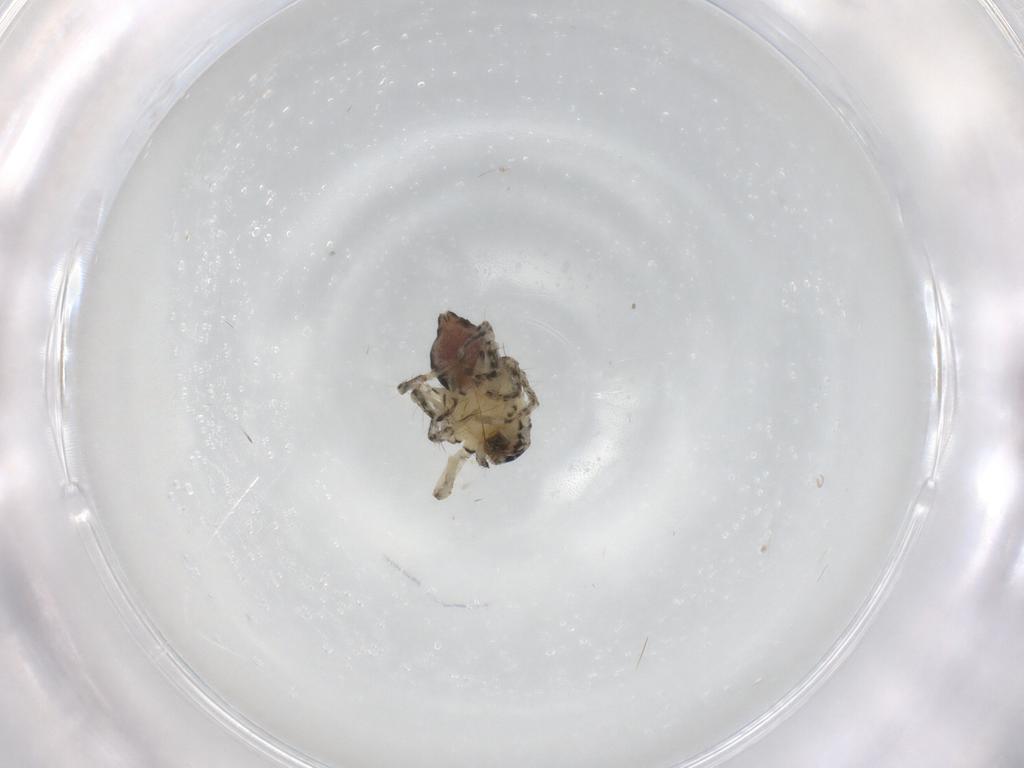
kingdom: Animalia
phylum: Arthropoda
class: Arachnida
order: Araneae
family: Oxyopidae
